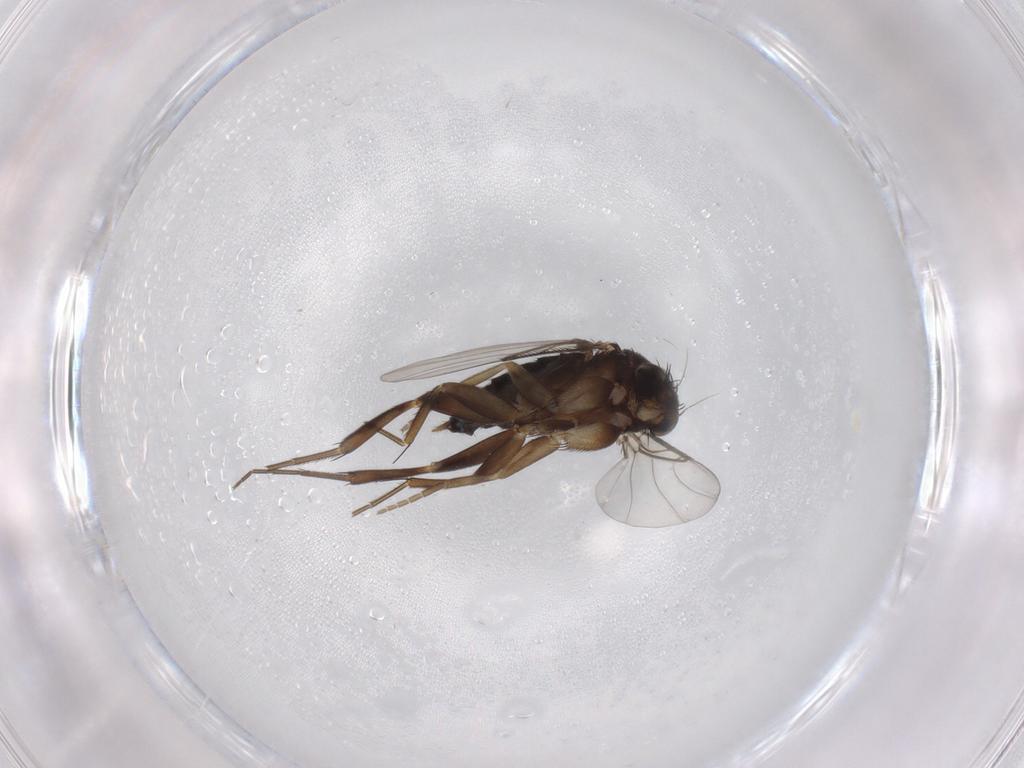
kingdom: Animalia
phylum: Arthropoda
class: Insecta
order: Diptera
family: Phoridae
